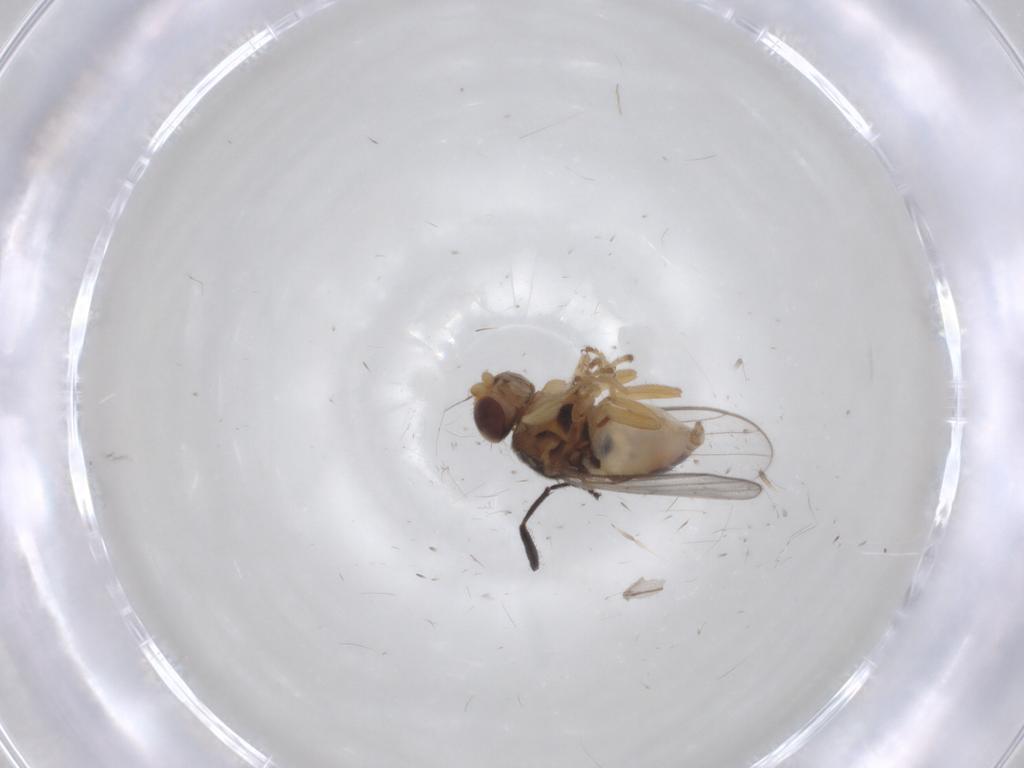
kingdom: Animalia
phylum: Arthropoda
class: Insecta
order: Diptera
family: Chloropidae
